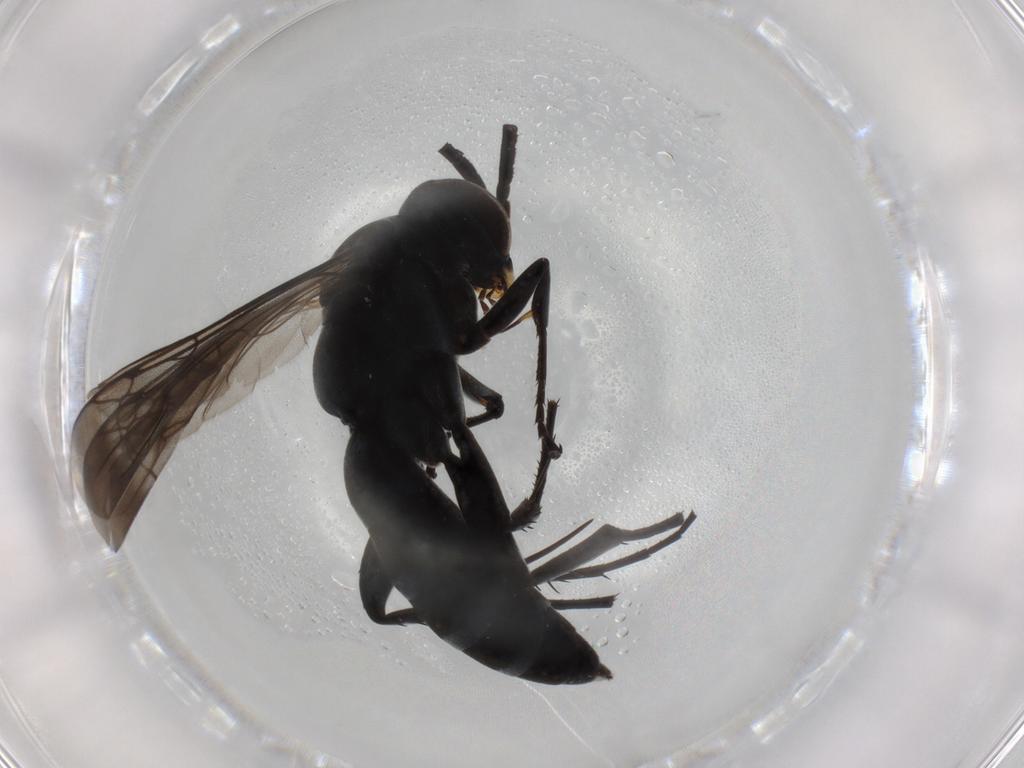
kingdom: Animalia
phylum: Arthropoda
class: Insecta
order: Hymenoptera
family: Pompilidae
